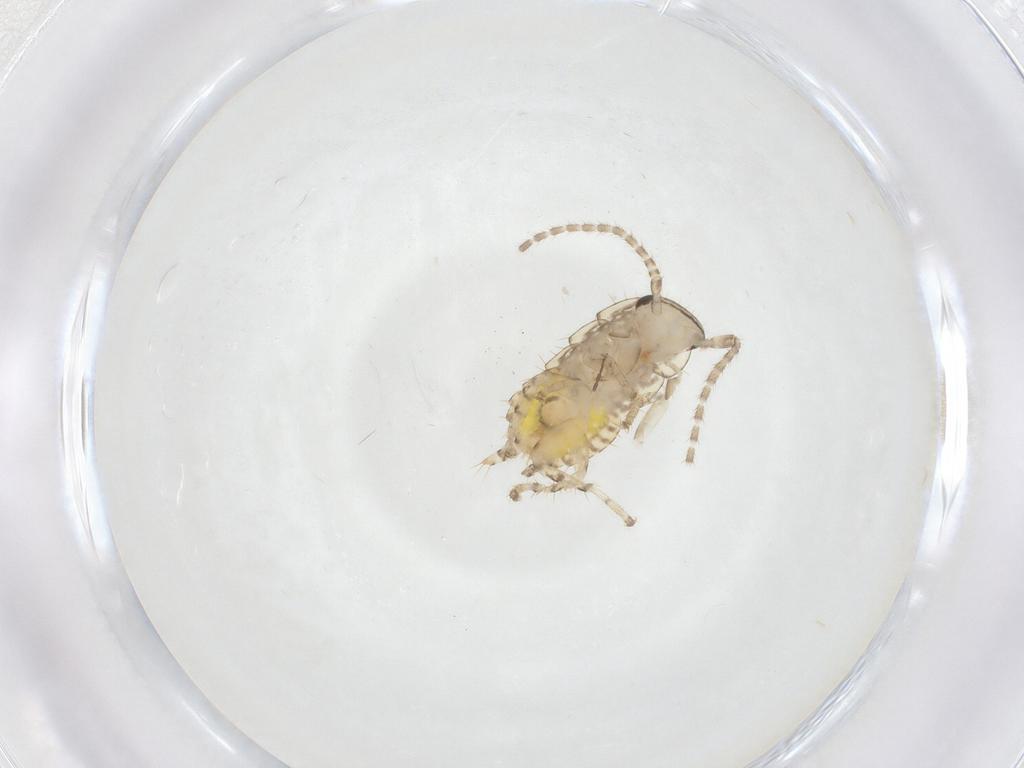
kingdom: Animalia
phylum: Arthropoda
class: Insecta
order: Blattodea
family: Ectobiidae
